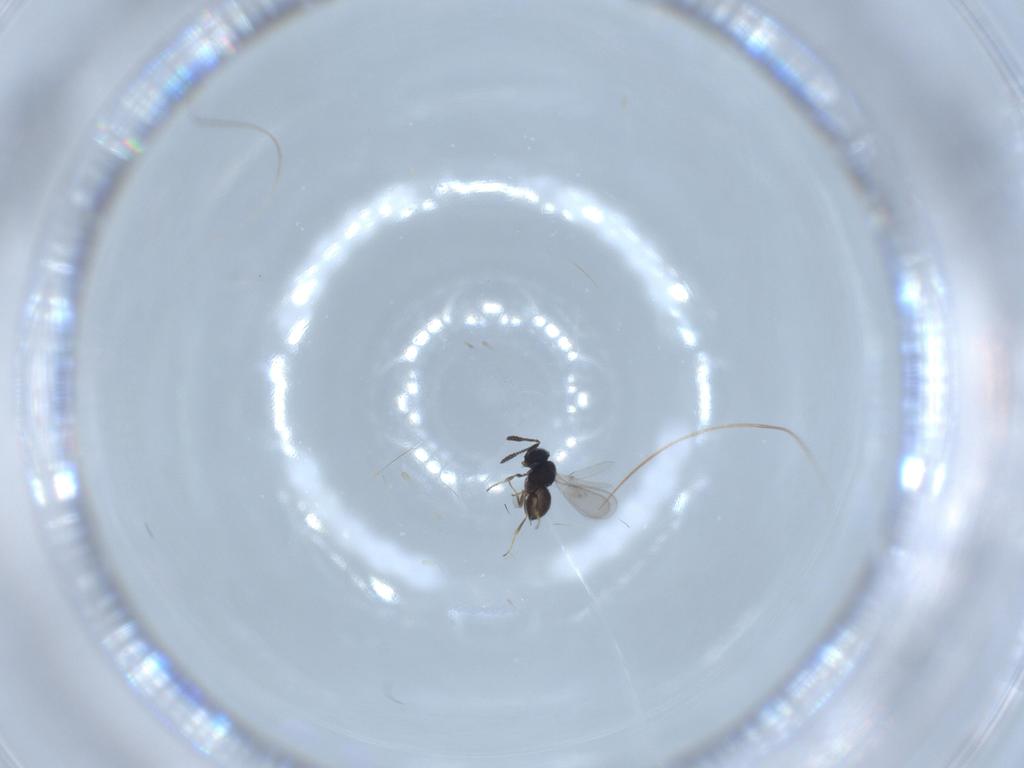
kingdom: Animalia
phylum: Arthropoda
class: Insecta
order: Hymenoptera
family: Scelionidae
